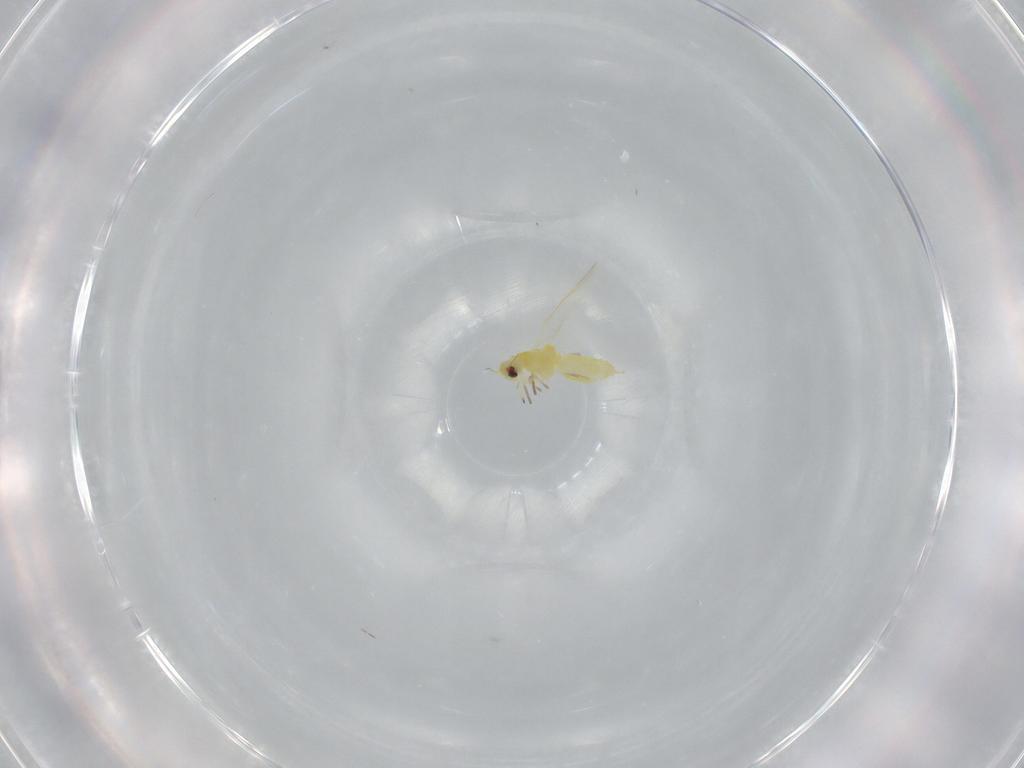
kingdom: Animalia
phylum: Arthropoda
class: Insecta
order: Hemiptera
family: Aleyrodidae
